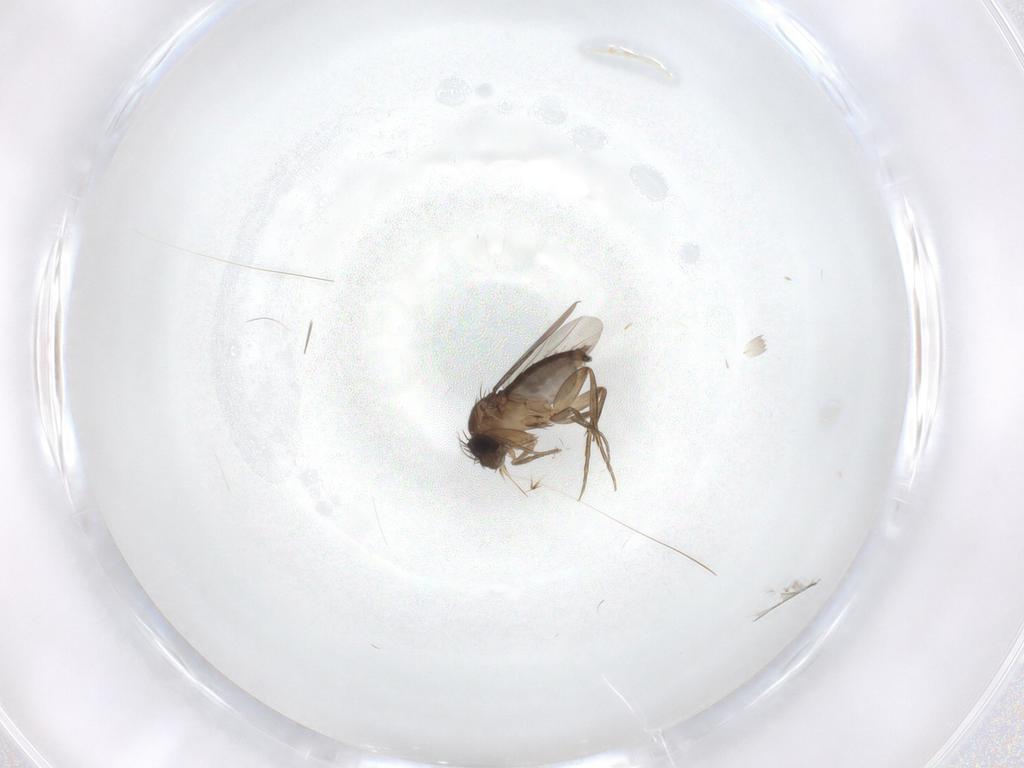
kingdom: Animalia
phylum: Arthropoda
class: Insecta
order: Diptera
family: Phoridae
